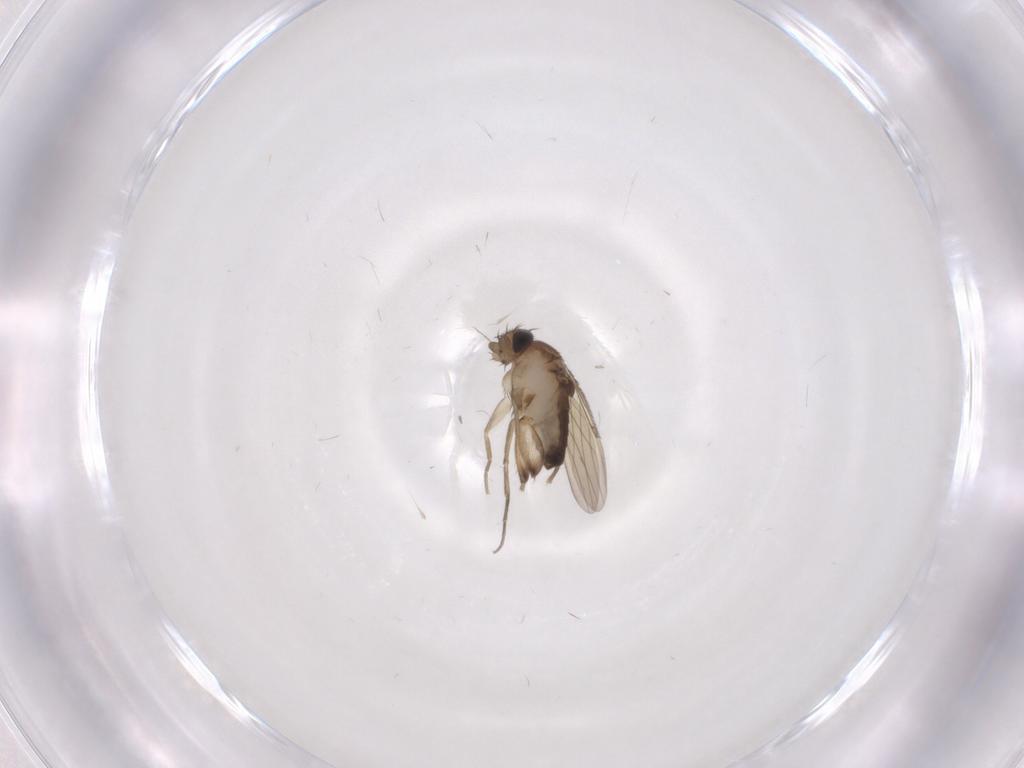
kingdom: Animalia
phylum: Arthropoda
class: Insecta
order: Diptera
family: Phoridae
